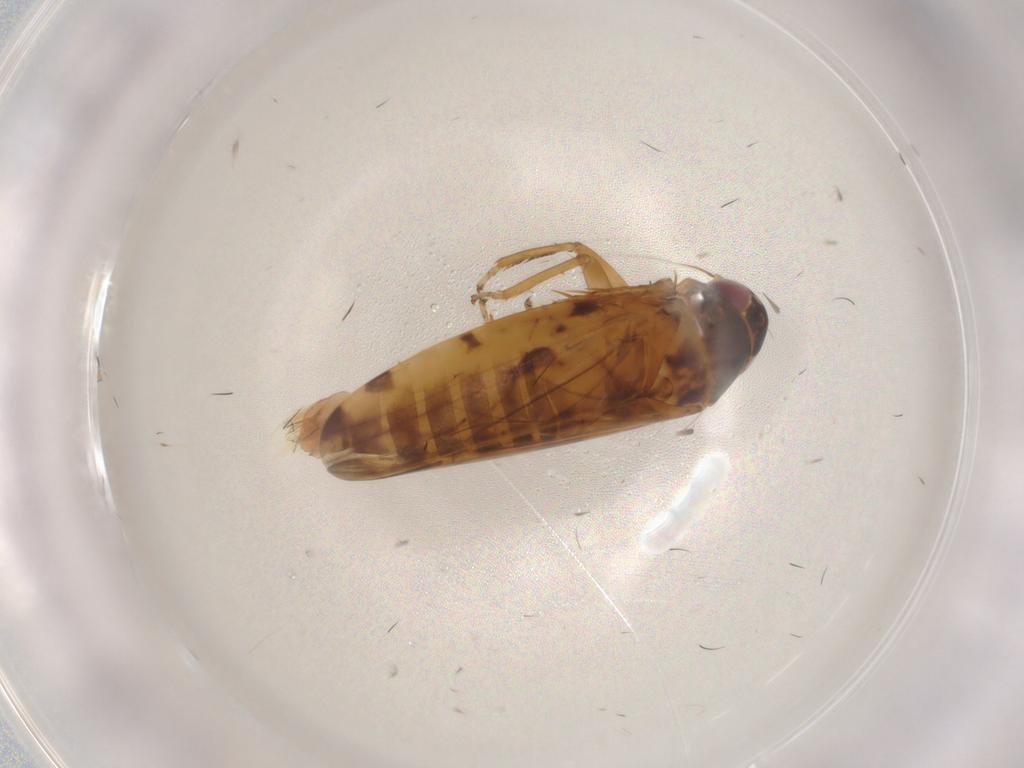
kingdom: Animalia
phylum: Arthropoda
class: Insecta
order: Hemiptera
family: Cicadellidae
